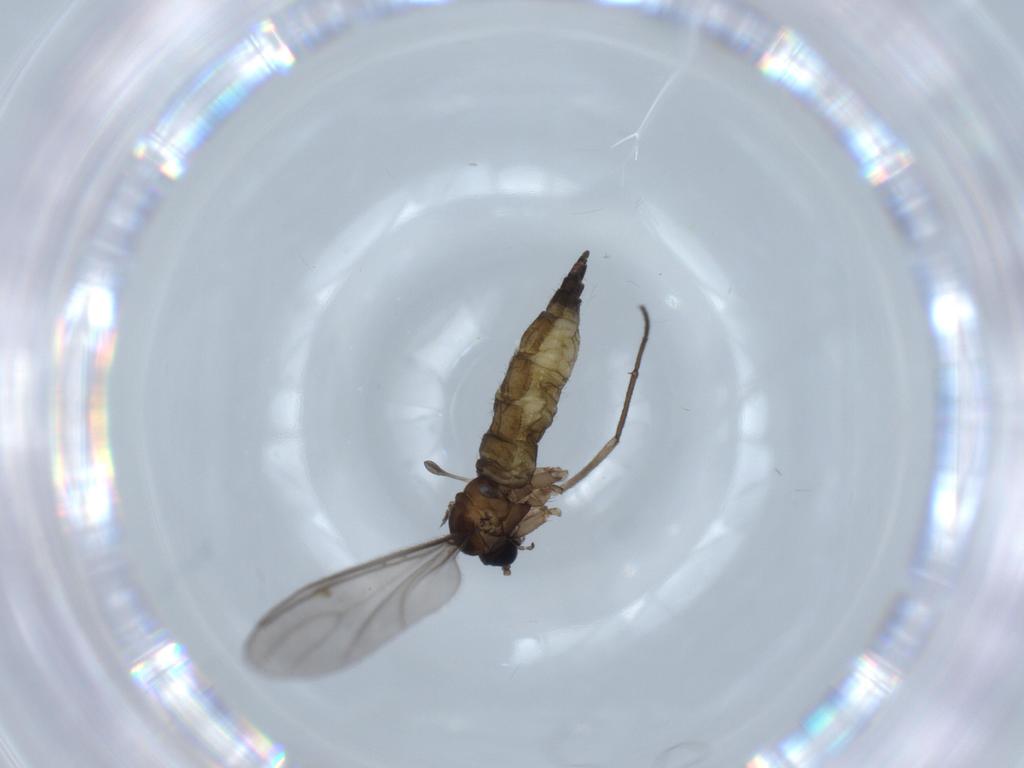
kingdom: Animalia
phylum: Arthropoda
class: Insecta
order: Diptera
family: Sciaridae
